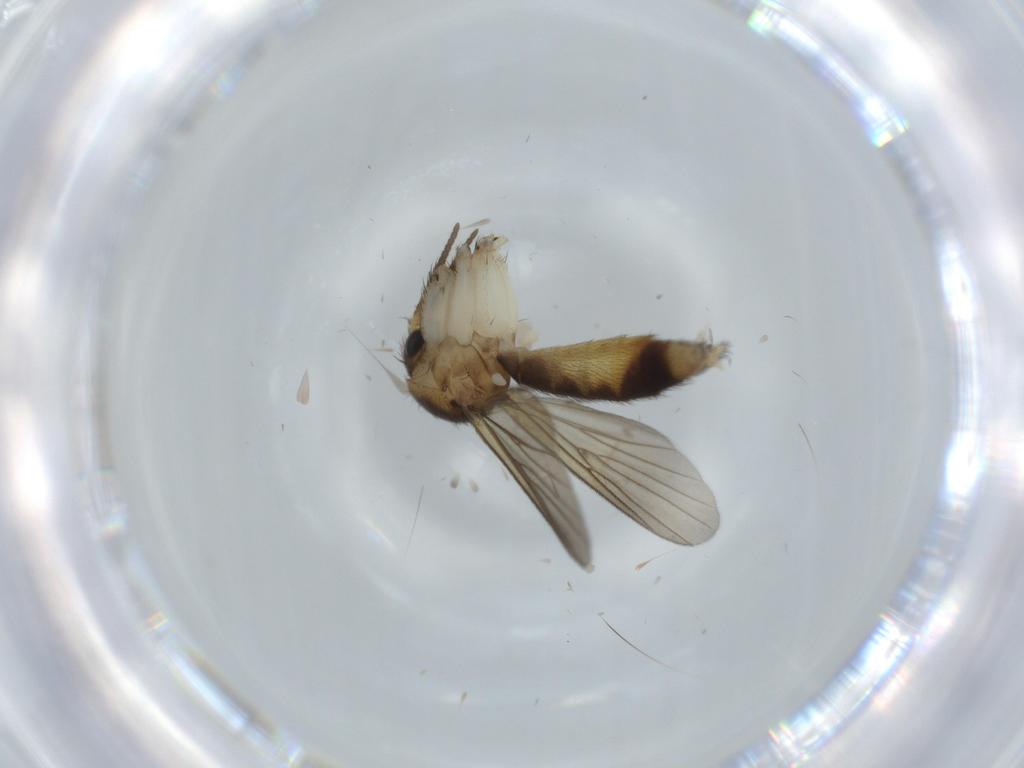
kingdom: Animalia
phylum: Arthropoda
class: Insecta
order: Diptera
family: Sciaridae
